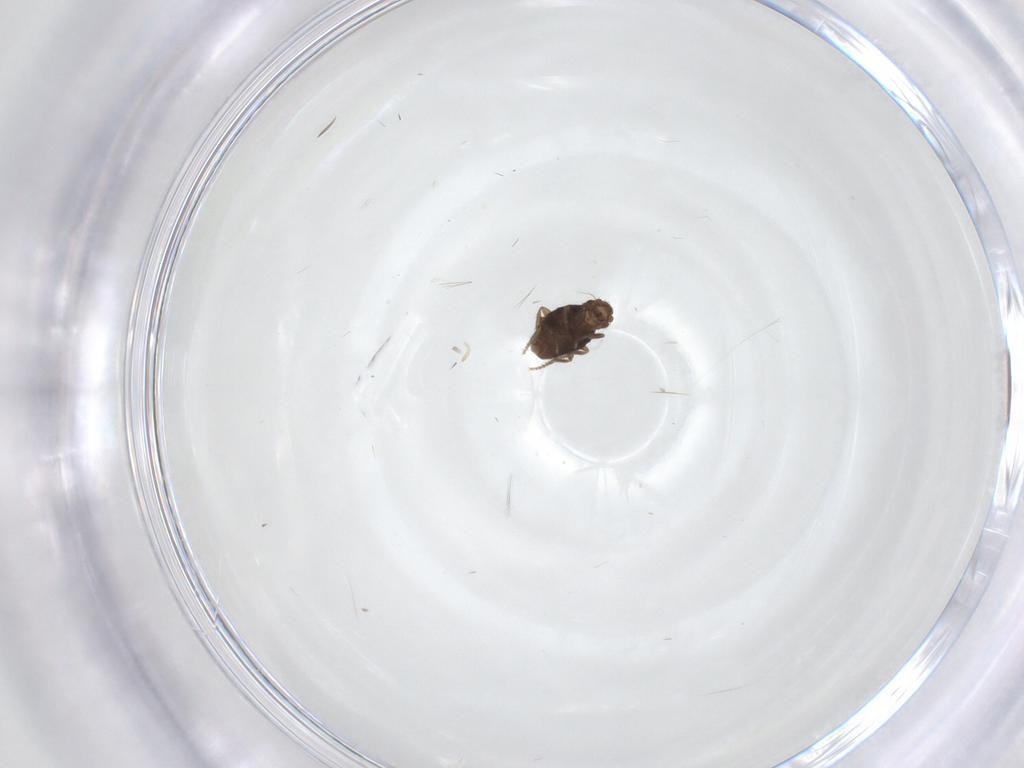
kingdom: Animalia
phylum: Arthropoda
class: Insecta
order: Diptera
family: Phoridae
